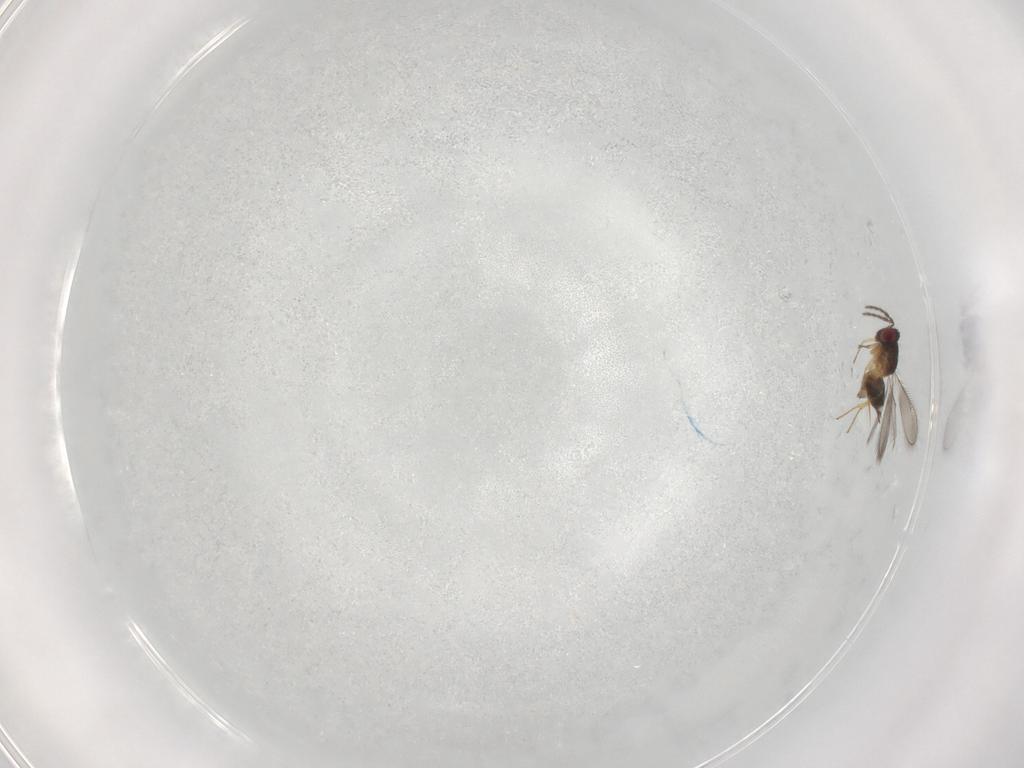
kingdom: Animalia
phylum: Arthropoda
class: Insecta
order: Hymenoptera
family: Eulophidae
